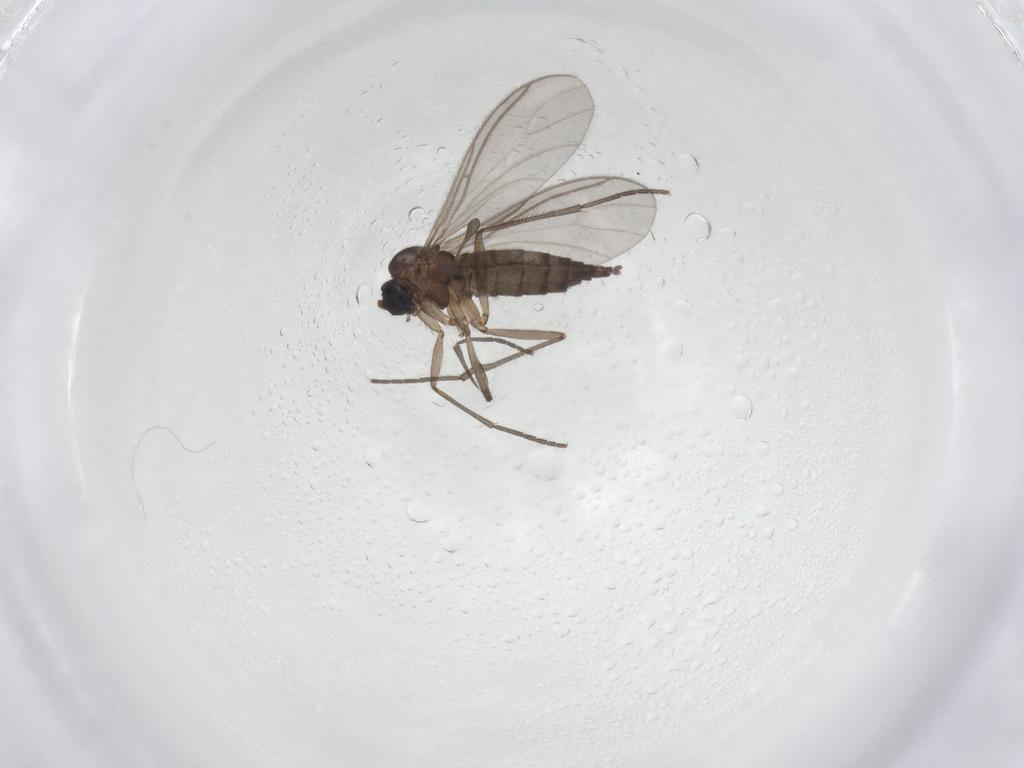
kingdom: Animalia
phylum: Arthropoda
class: Insecta
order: Diptera
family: Sciaridae
